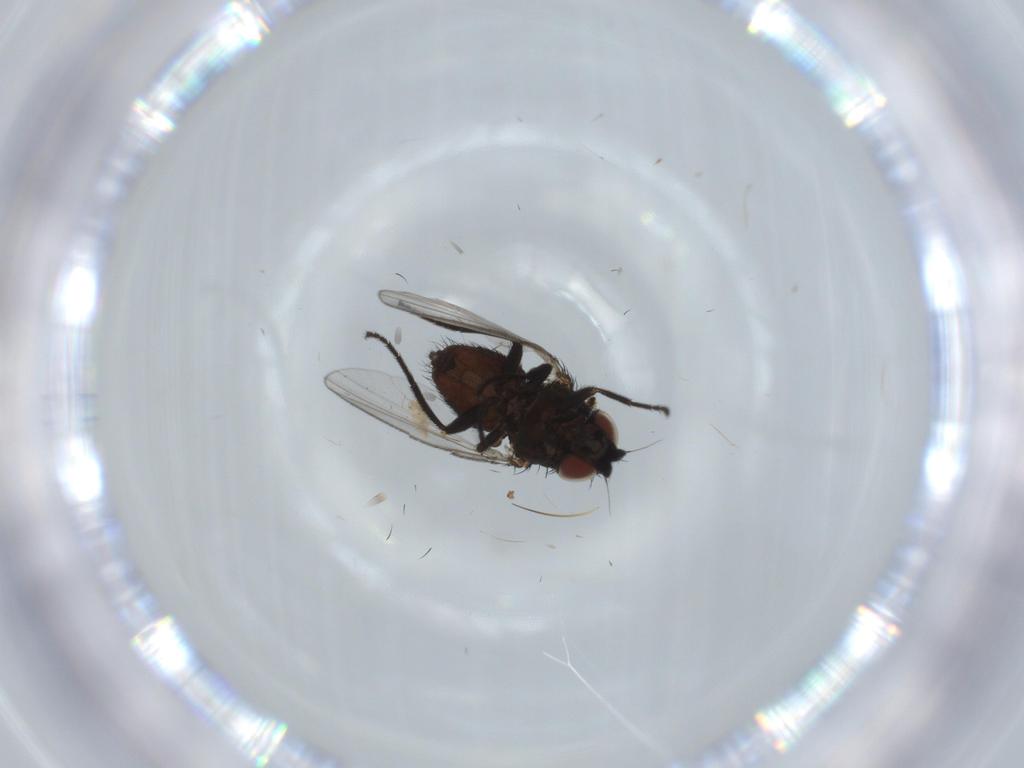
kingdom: Animalia
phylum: Arthropoda
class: Insecta
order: Diptera
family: Milichiidae
